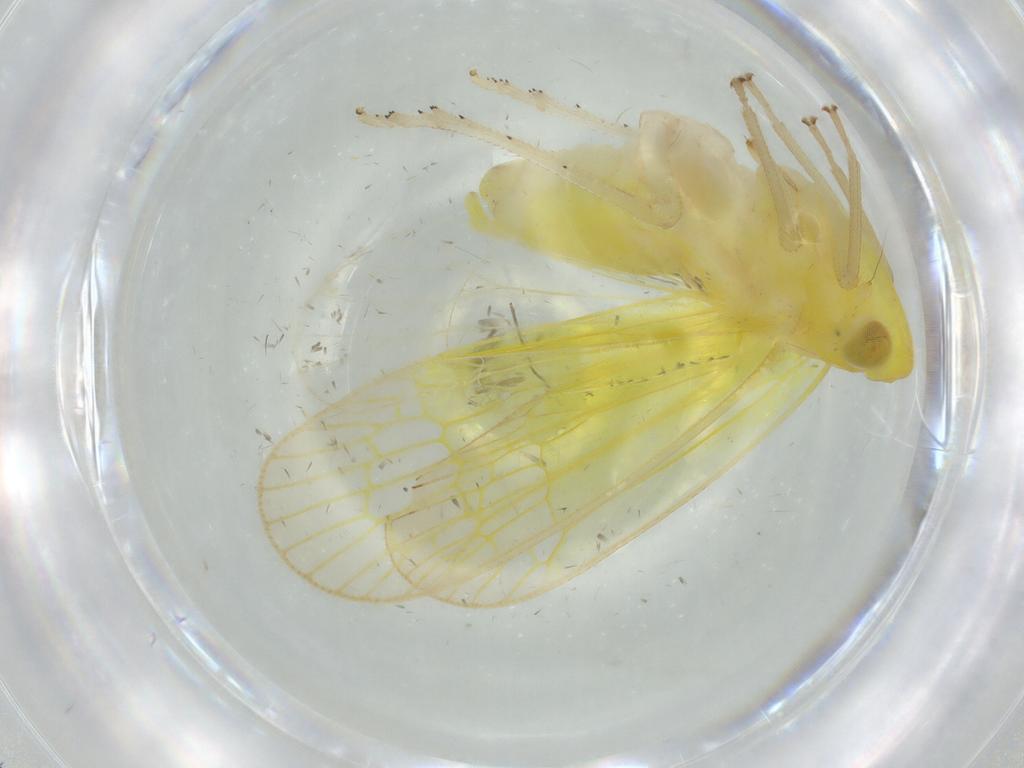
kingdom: Animalia
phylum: Arthropoda
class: Insecta
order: Hemiptera
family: Tropiduchidae
